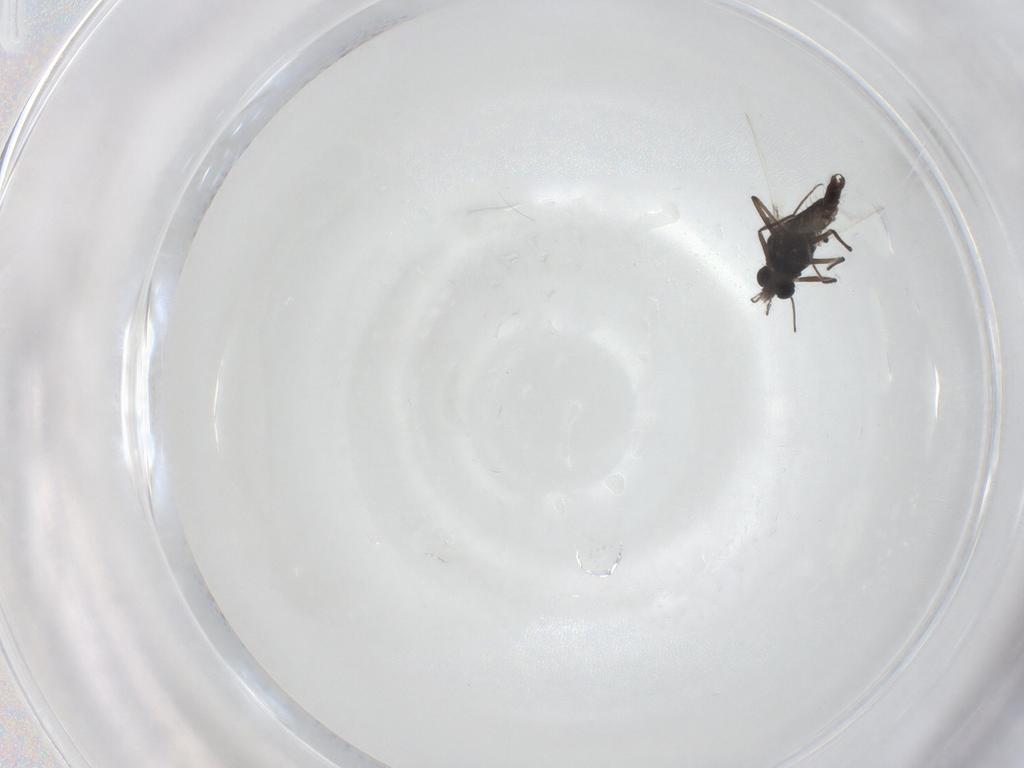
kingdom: Animalia
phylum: Arthropoda
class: Insecta
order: Diptera
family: Chironomidae
